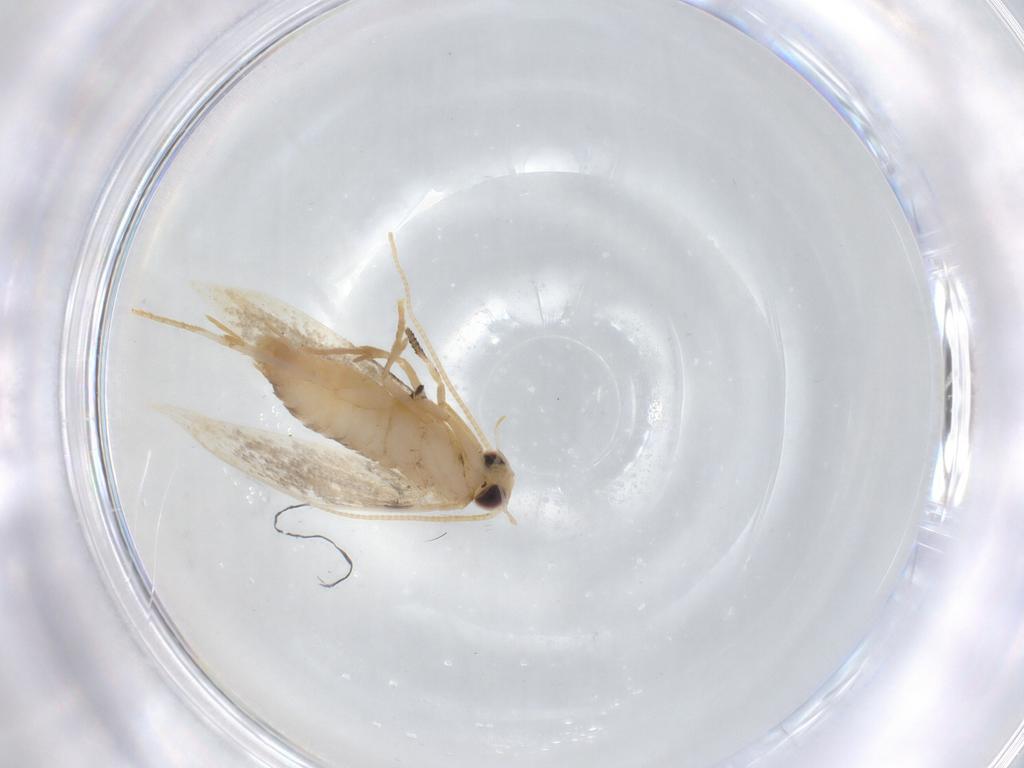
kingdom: Animalia
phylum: Arthropoda
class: Insecta
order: Lepidoptera
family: Nepticulidae
